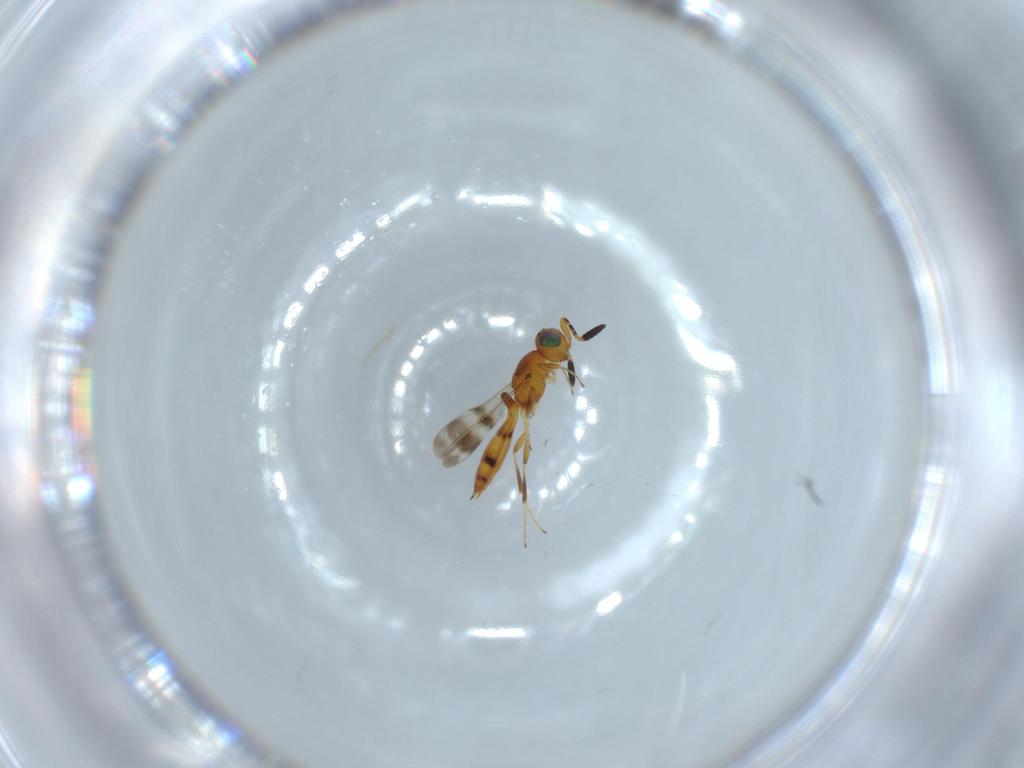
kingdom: Animalia
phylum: Arthropoda
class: Insecta
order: Hymenoptera
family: Scelionidae
